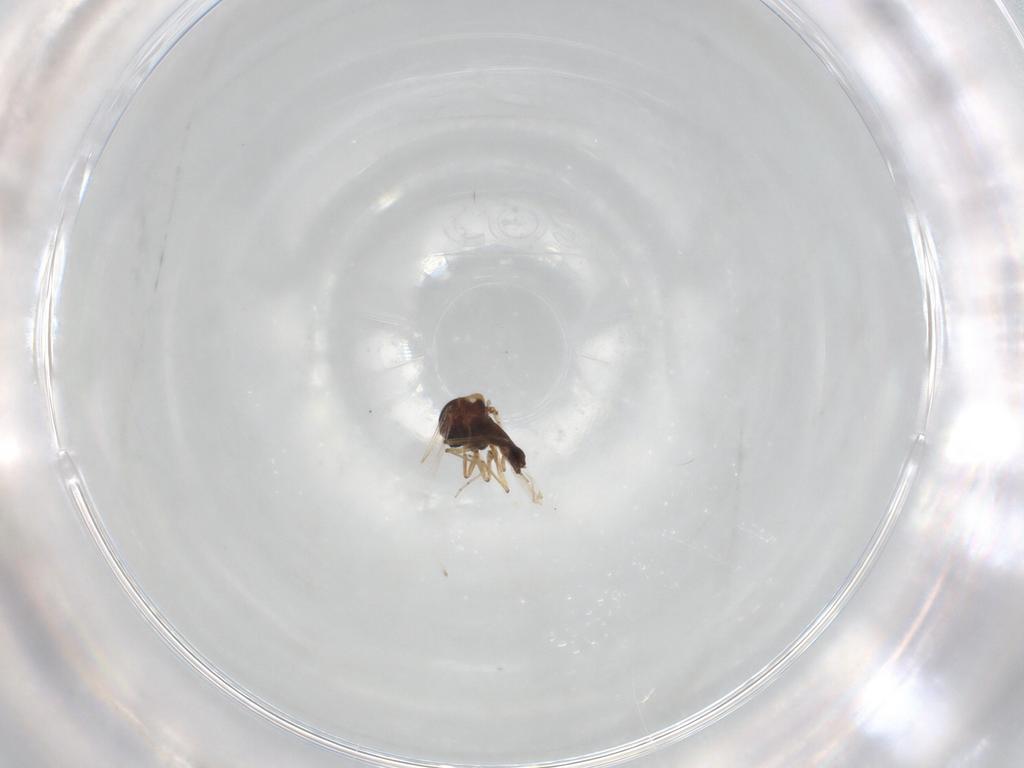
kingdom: Animalia
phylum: Arthropoda
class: Insecta
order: Diptera
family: Ceratopogonidae
